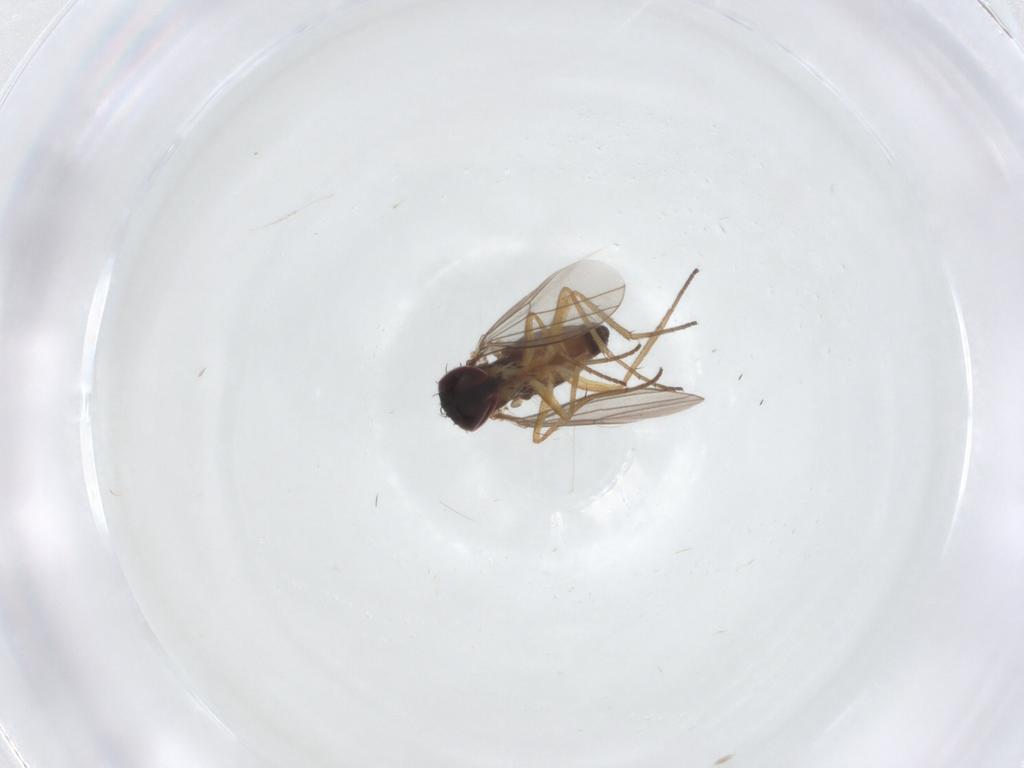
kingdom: Animalia
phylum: Arthropoda
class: Insecta
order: Diptera
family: Dolichopodidae
